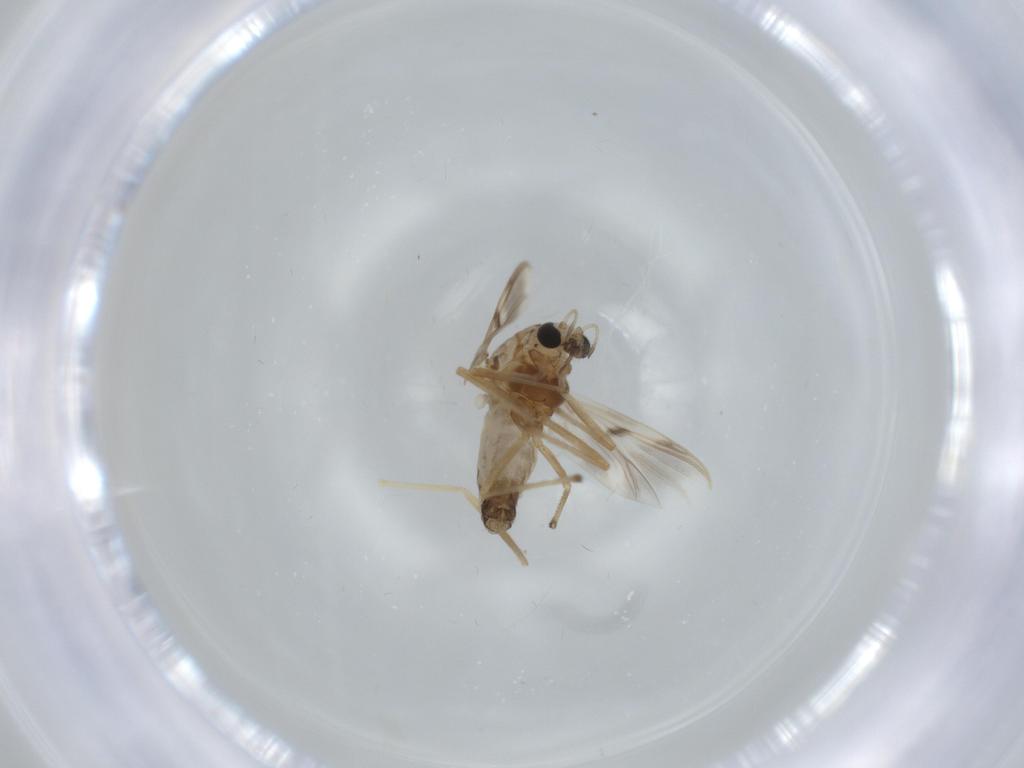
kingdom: Animalia
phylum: Arthropoda
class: Insecta
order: Diptera
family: Chironomidae
